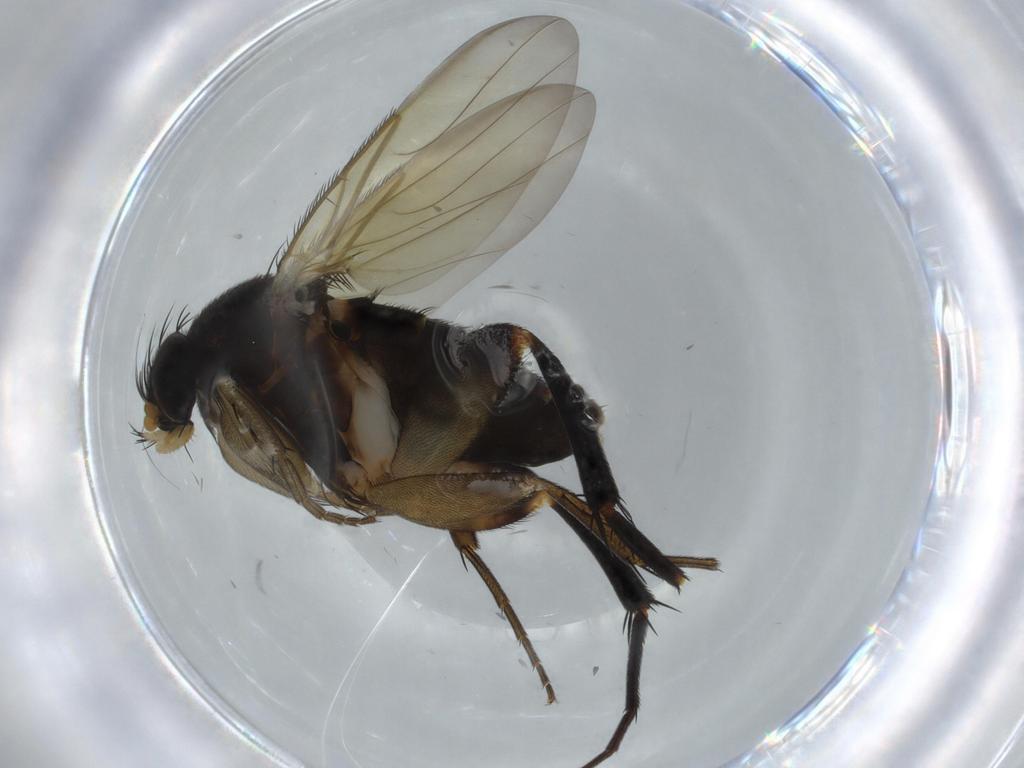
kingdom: Animalia
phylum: Arthropoda
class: Insecta
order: Diptera
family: Phoridae
